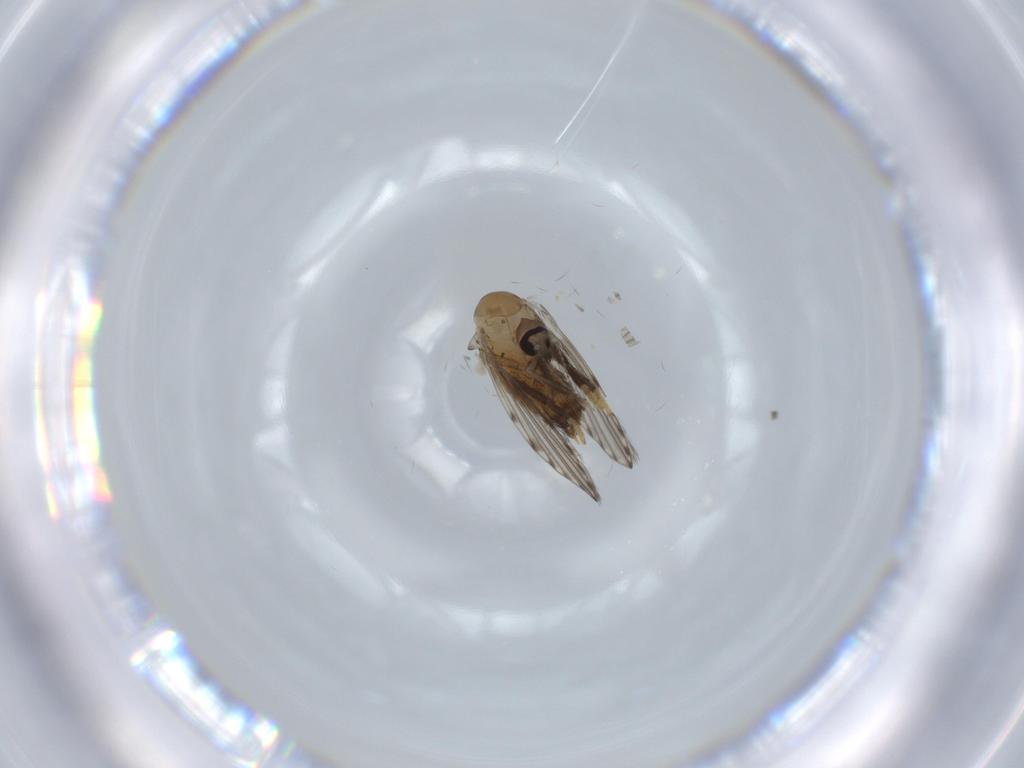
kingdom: Animalia
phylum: Arthropoda
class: Insecta
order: Diptera
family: Psychodidae
